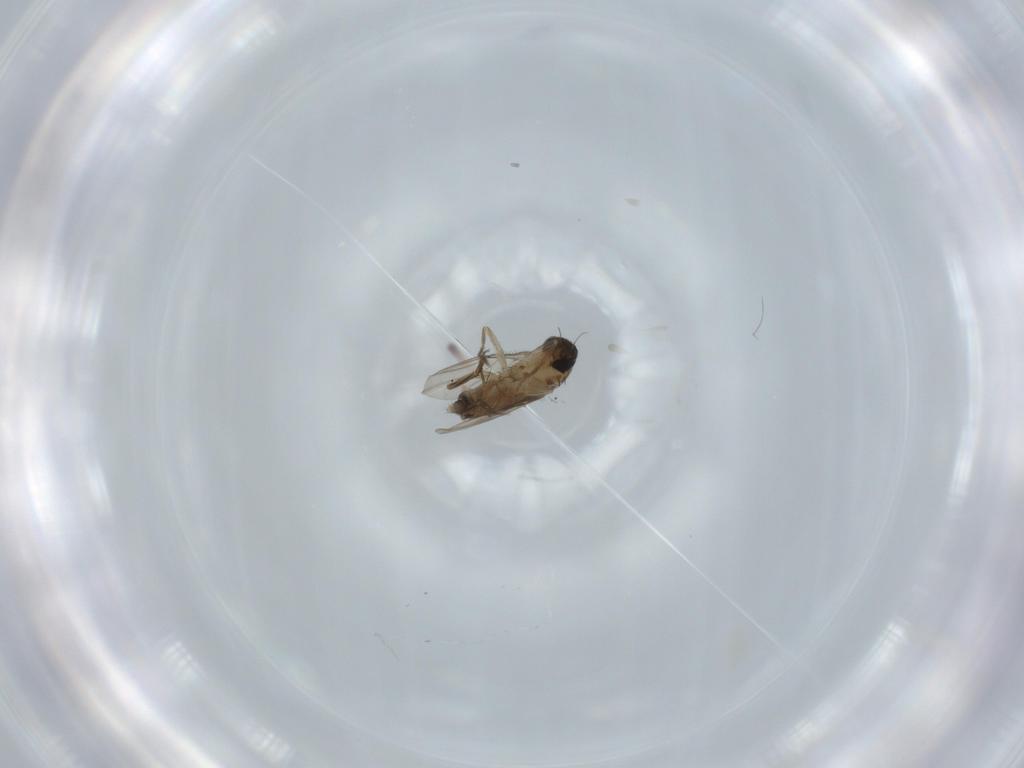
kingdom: Animalia
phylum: Arthropoda
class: Insecta
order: Diptera
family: Phoridae
